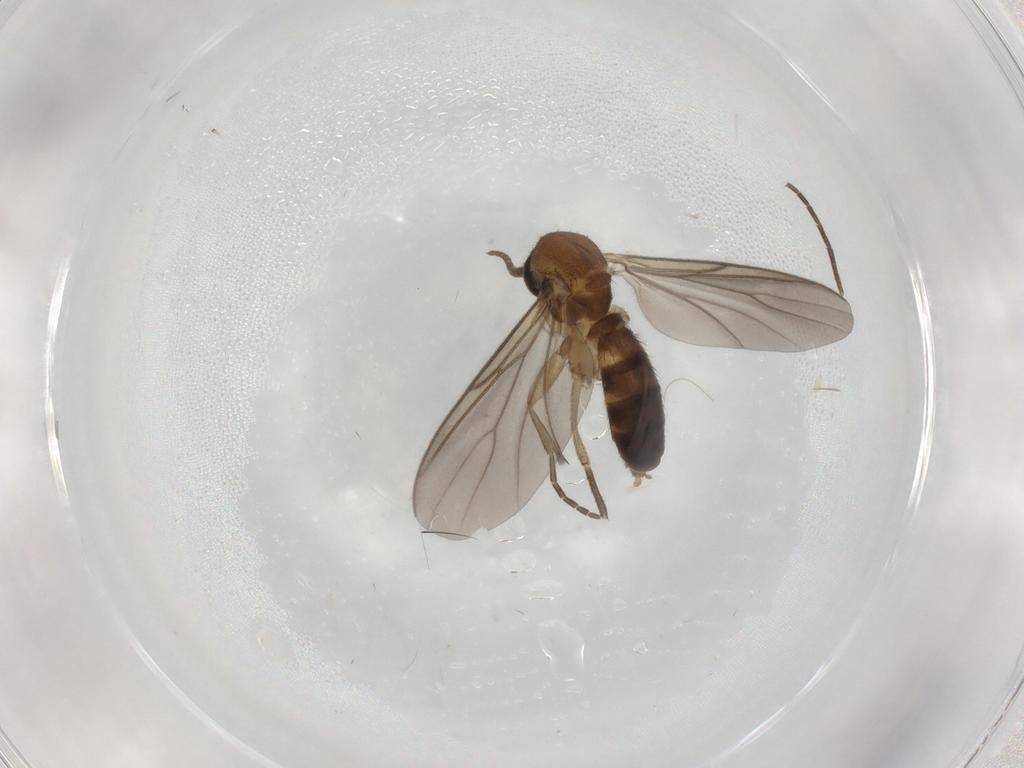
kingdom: Animalia
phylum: Arthropoda
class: Insecta
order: Diptera
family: Mycetophilidae
